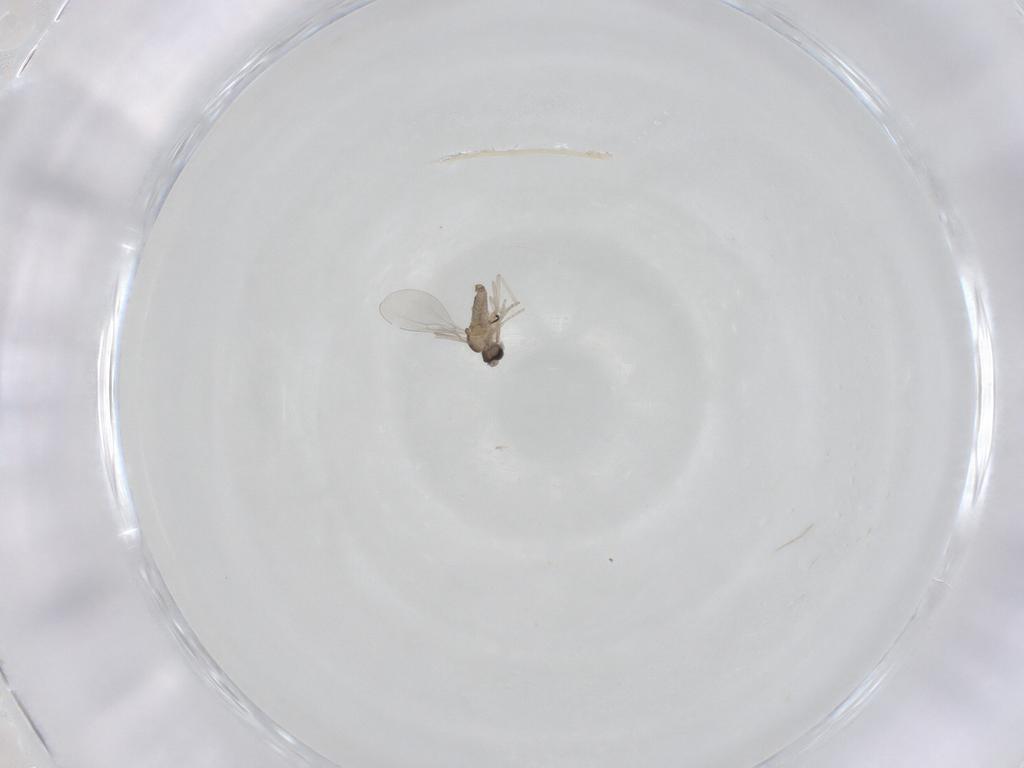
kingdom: Animalia
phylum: Arthropoda
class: Insecta
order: Diptera
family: Cecidomyiidae
